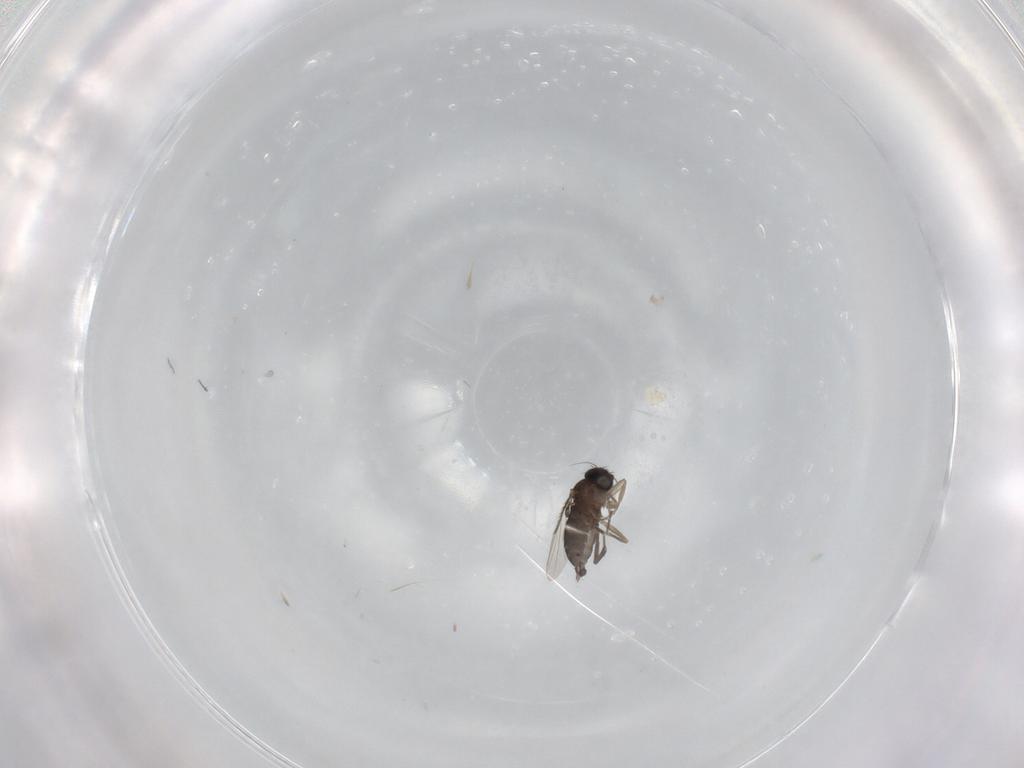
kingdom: Animalia
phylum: Arthropoda
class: Insecta
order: Diptera
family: Phoridae
